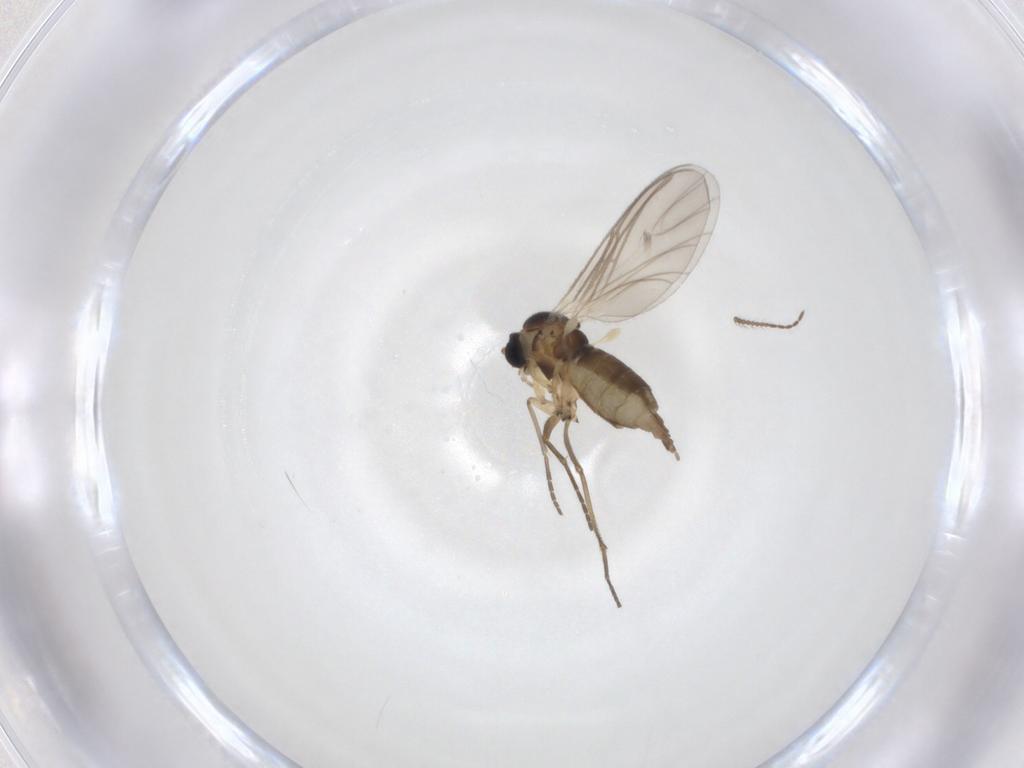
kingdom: Animalia
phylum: Arthropoda
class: Insecta
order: Diptera
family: Ceratopogonidae
